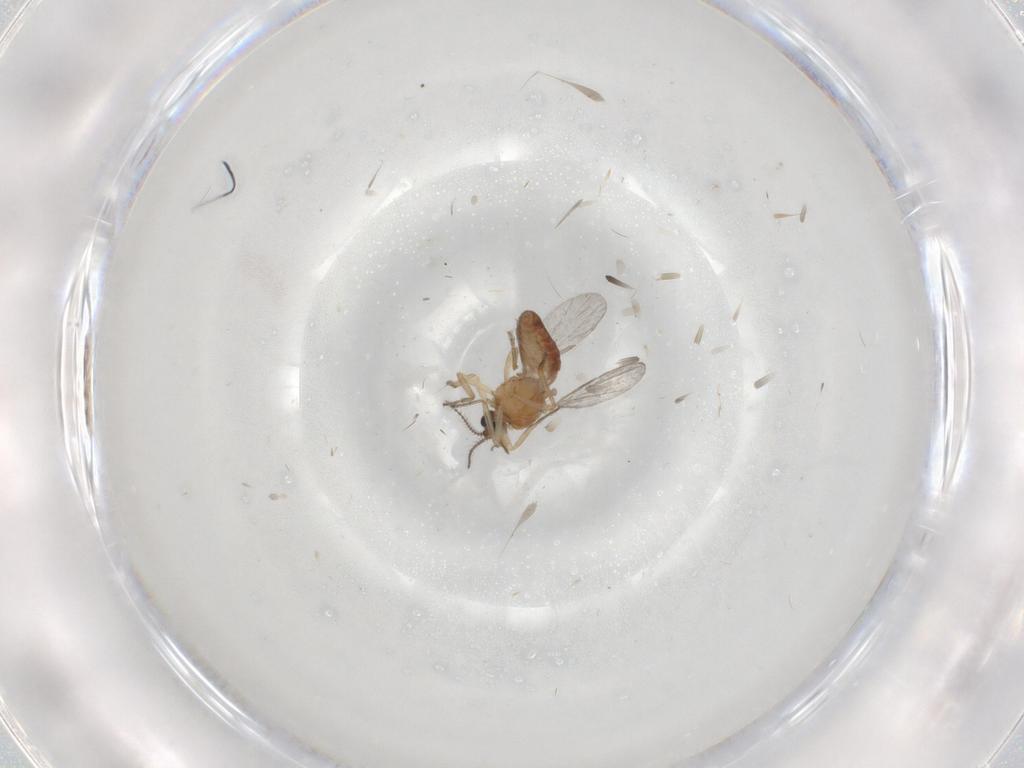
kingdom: Animalia
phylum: Arthropoda
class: Insecta
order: Diptera
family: Ceratopogonidae
